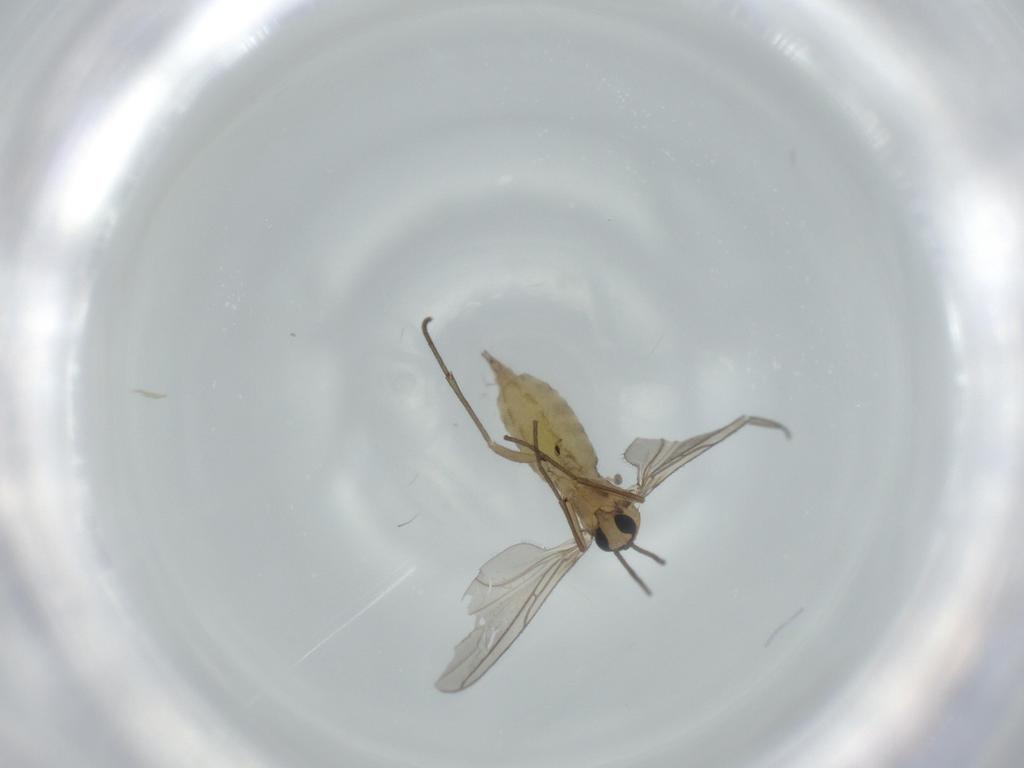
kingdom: Animalia
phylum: Arthropoda
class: Insecta
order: Diptera
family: Sciaridae
